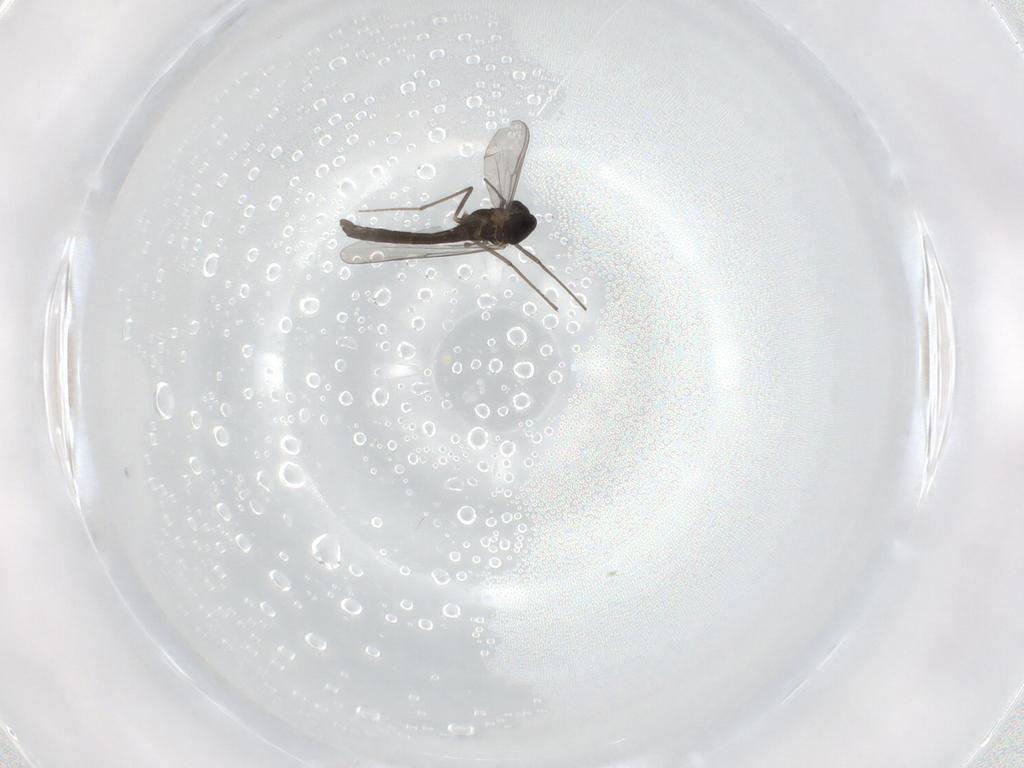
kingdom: Animalia
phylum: Arthropoda
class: Insecta
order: Diptera
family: Chironomidae
